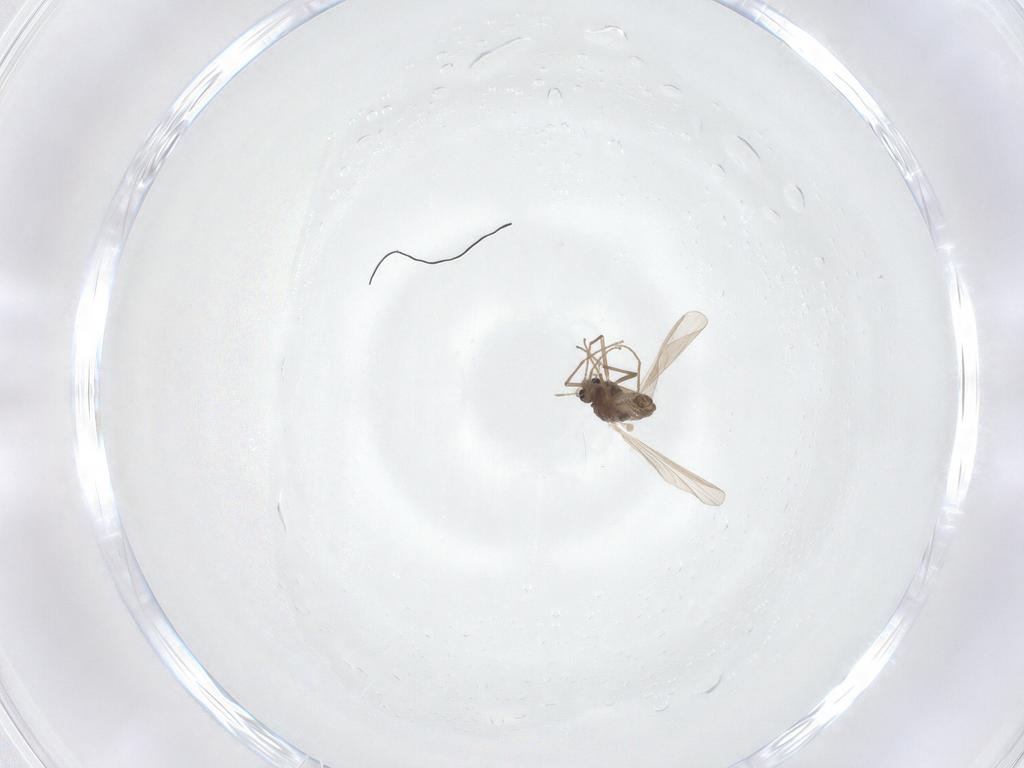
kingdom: Animalia
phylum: Arthropoda
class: Insecta
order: Diptera
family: Chironomidae
